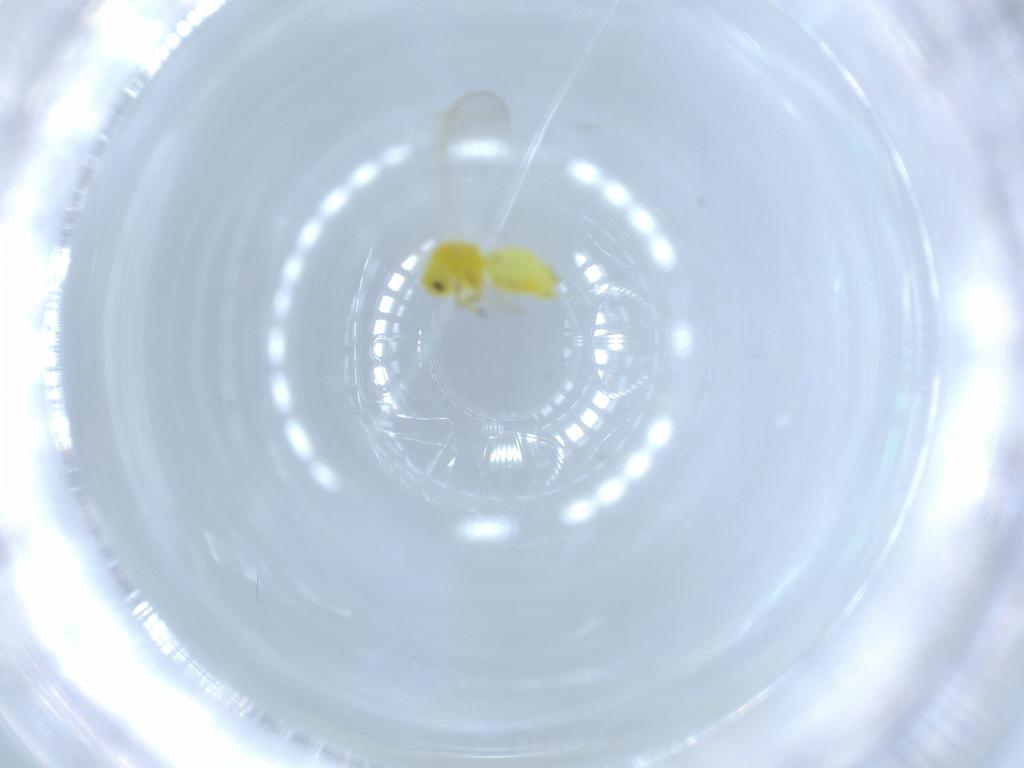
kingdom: Animalia
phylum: Arthropoda
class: Insecta
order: Hemiptera
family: Aleyrodidae
